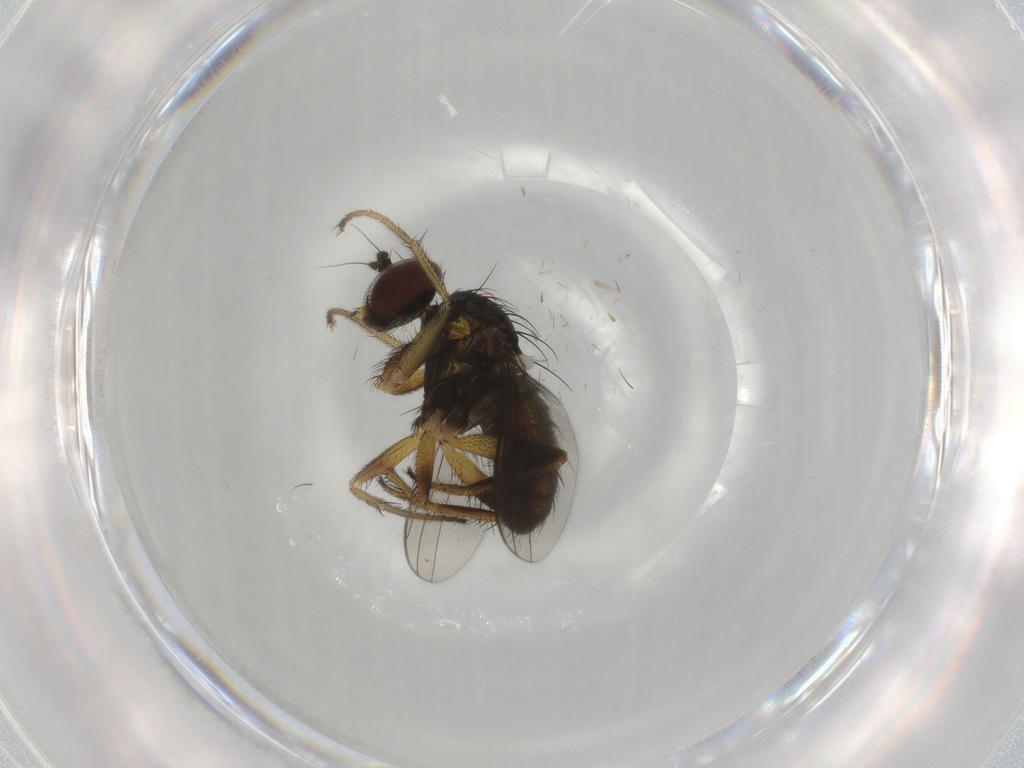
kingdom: Animalia
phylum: Arthropoda
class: Insecta
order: Diptera
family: Dolichopodidae
